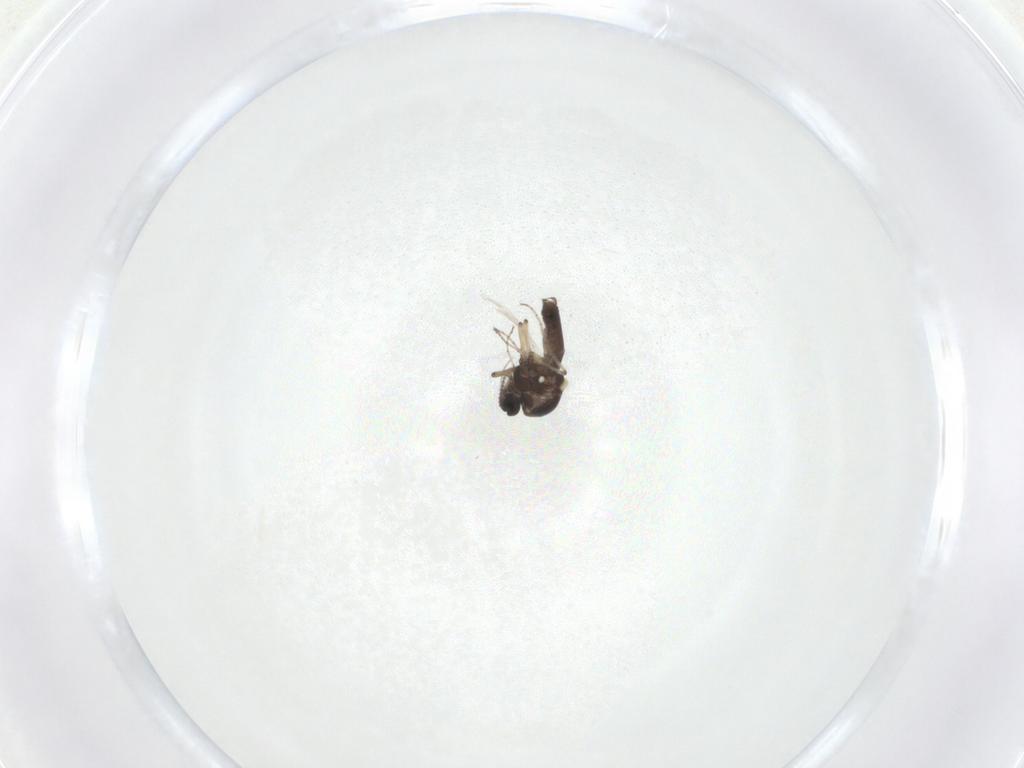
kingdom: Animalia
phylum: Arthropoda
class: Insecta
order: Diptera
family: Ceratopogonidae
